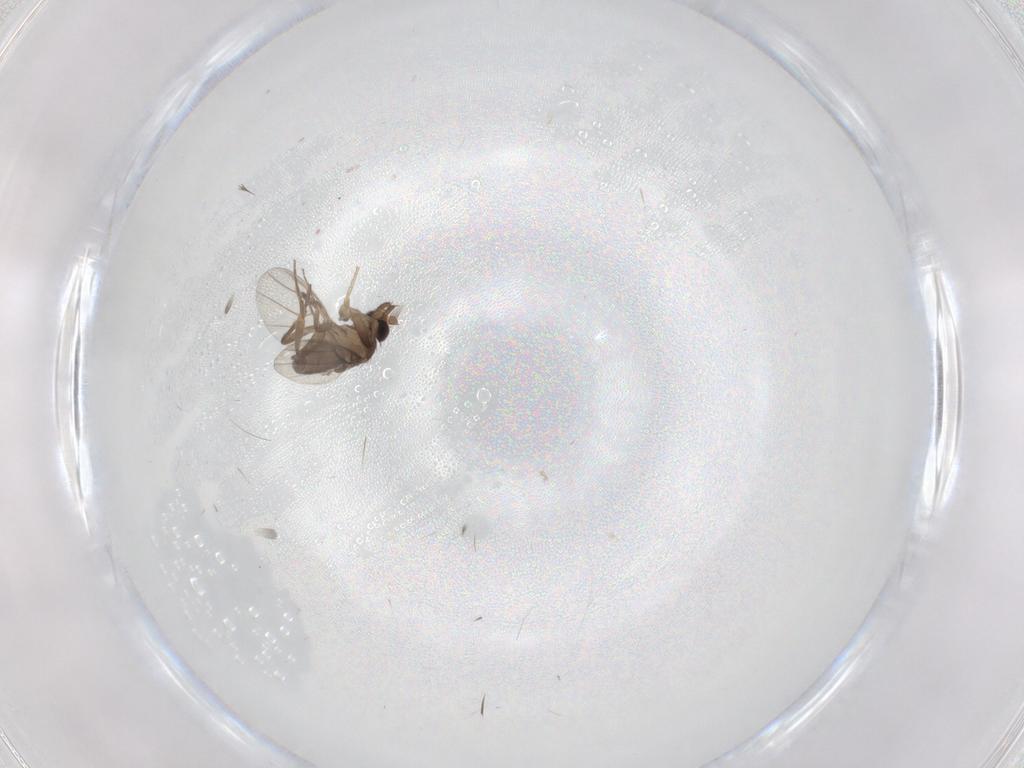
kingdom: Animalia
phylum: Arthropoda
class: Insecta
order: Diptera
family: Phoridae
